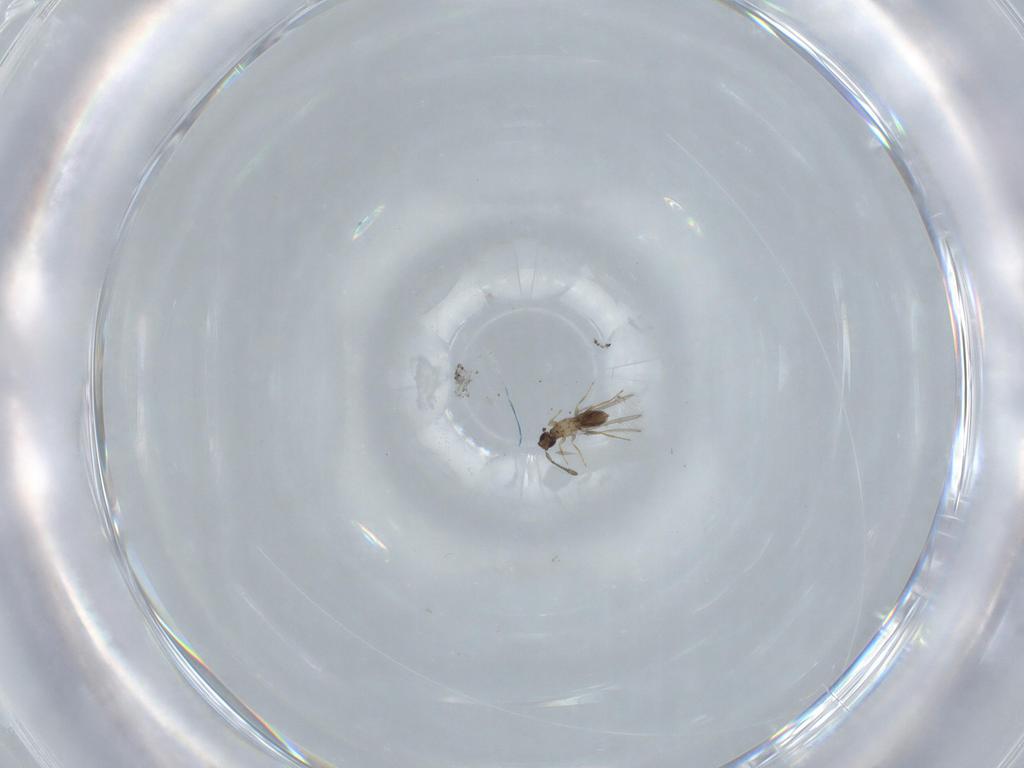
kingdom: Animalia
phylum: Arthropoda
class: Insecta
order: Hymenoptera
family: Mymaridae
